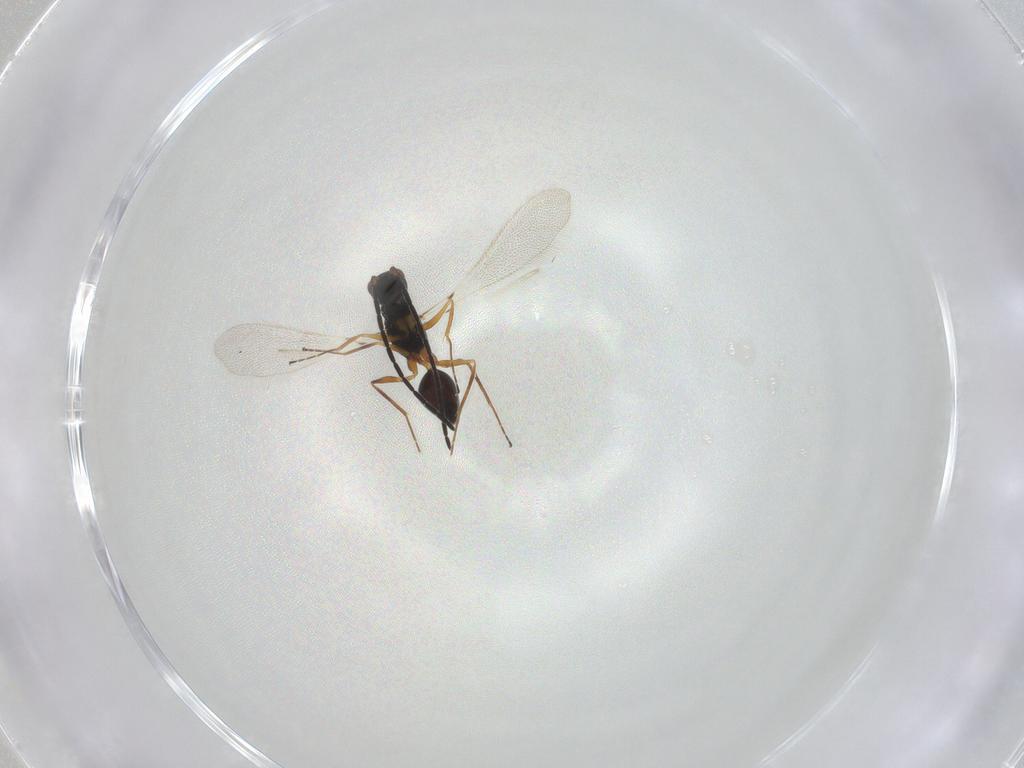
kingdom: Animalia
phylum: Arthropoda
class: Insecta
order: Hymenoptera
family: Mymaridae
